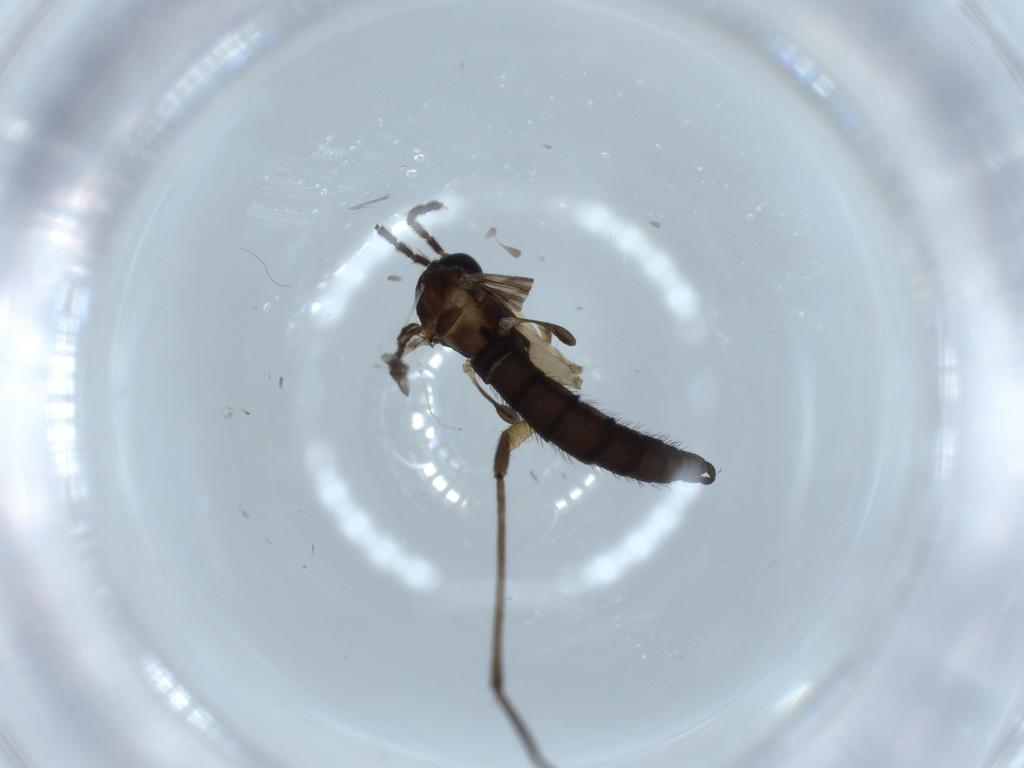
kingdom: Animalia
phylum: Arthropoda
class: Insecta
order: Diptera
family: Sciaridae
